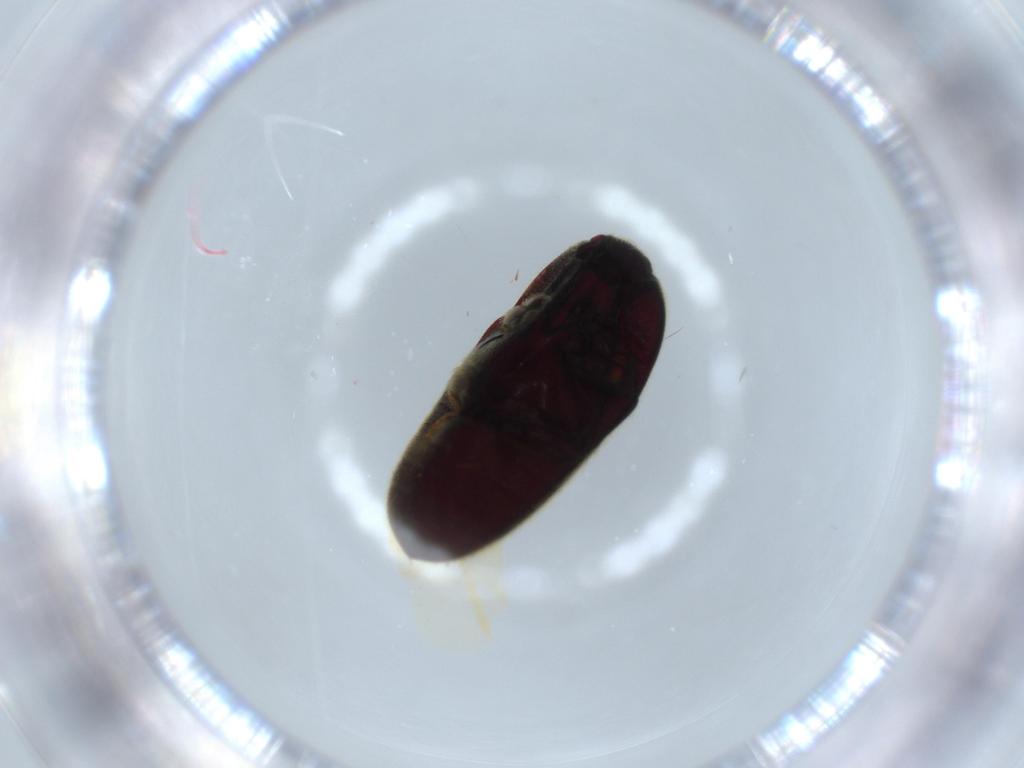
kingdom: Animalia
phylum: Arthropoda
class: Insecta
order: Coleoptera
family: Throscidae
